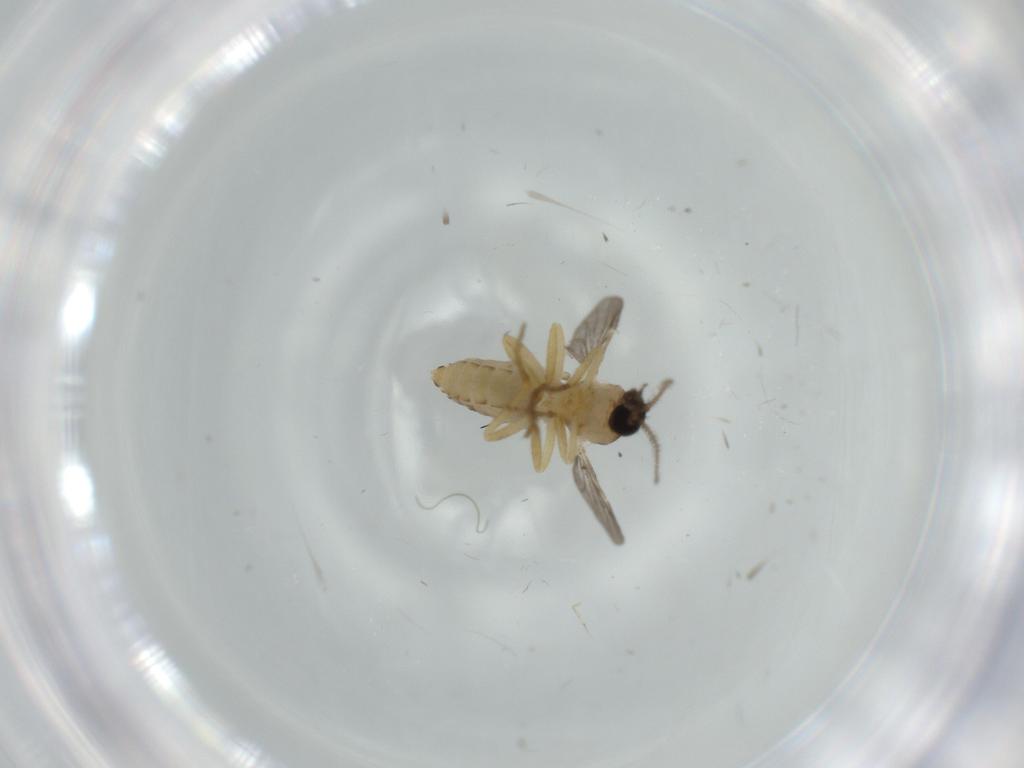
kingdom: Animalia
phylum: Arthropoda
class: Insecta
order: Diptera
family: Ceratopogonidae
